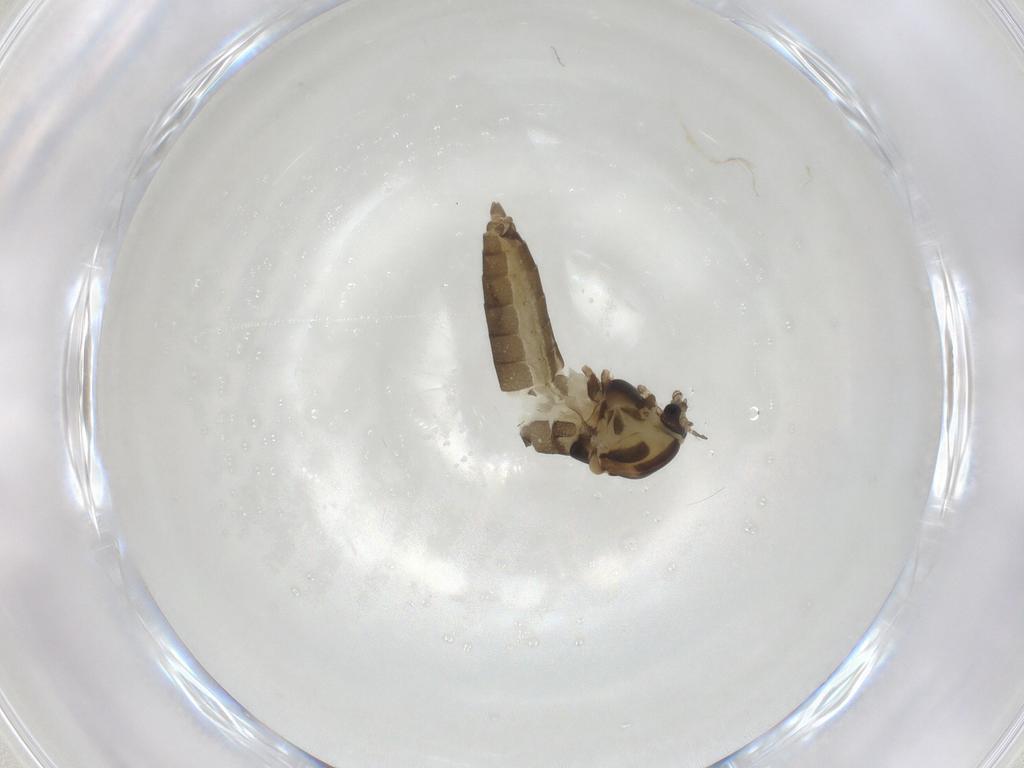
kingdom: Animalia
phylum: Arthropoda
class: Insecta
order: Diptera
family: Chironomidae
